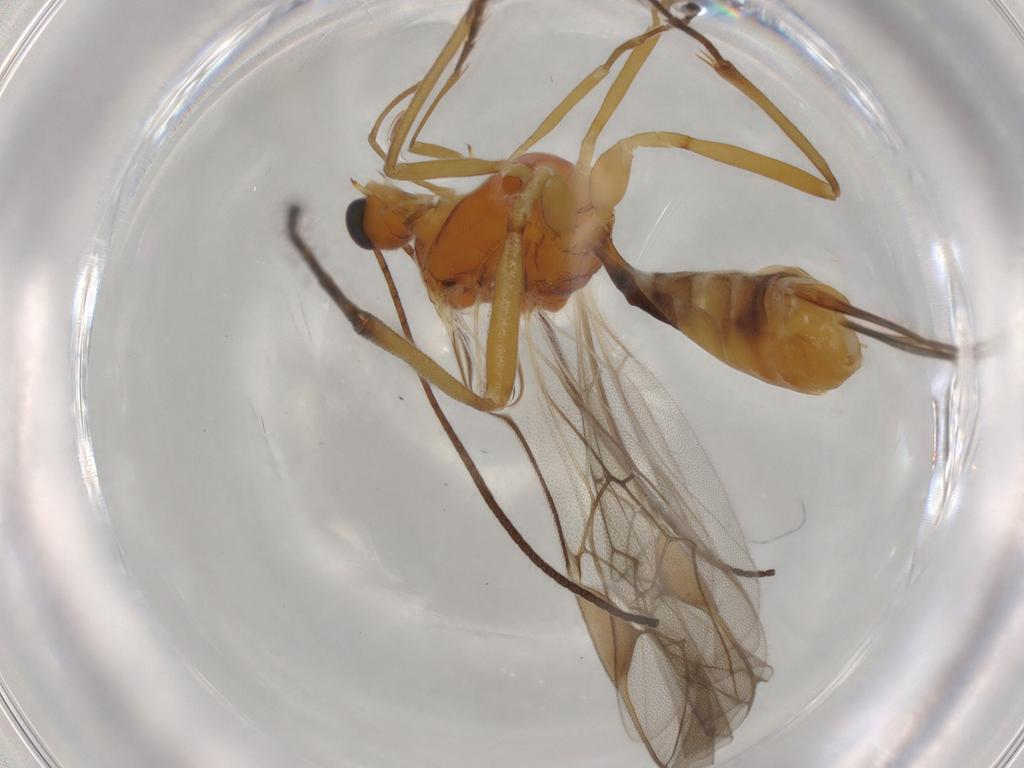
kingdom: Animalia
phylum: Arthropoda
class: Insecta
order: Hymenoptera
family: Braconidae
